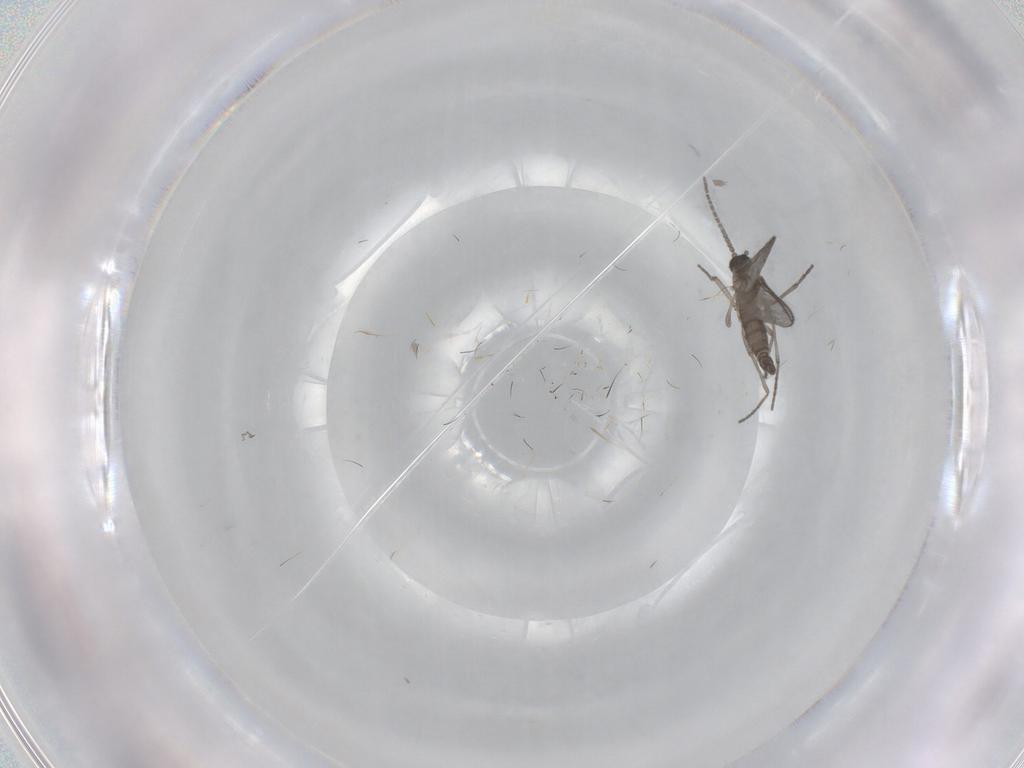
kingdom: Animalia
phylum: Arthropoda
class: Insecta
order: Diptera
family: Sciaridae
